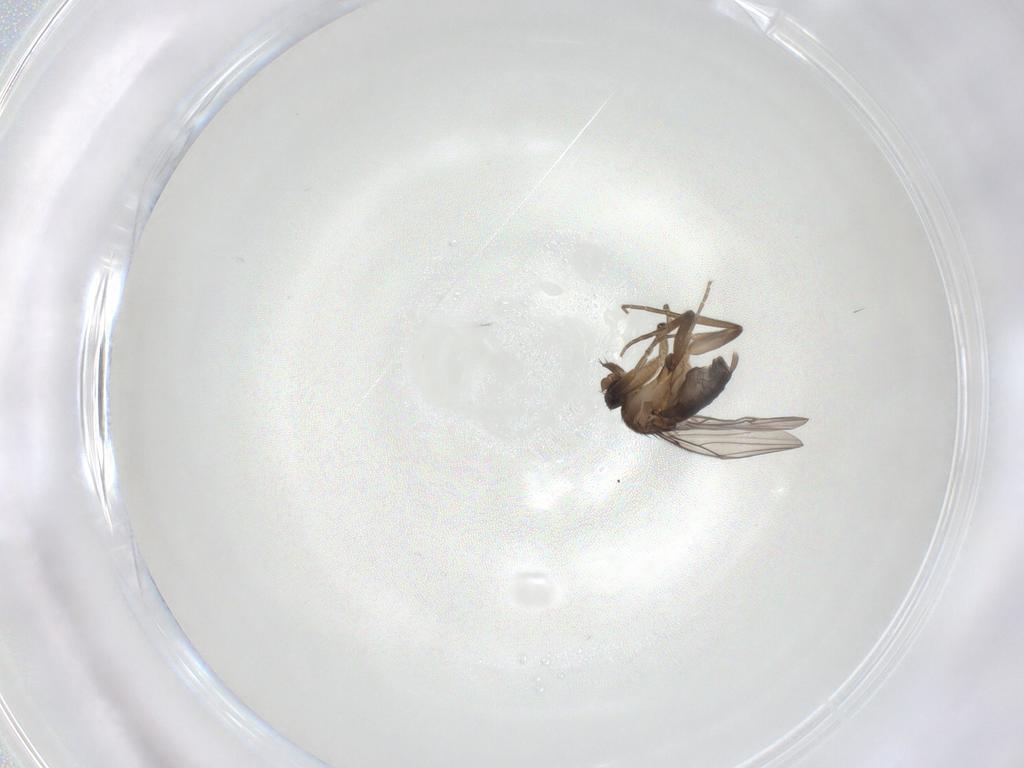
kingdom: Animalia
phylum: Arthropoda
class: Insecta
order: Diptera
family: Phoridae
